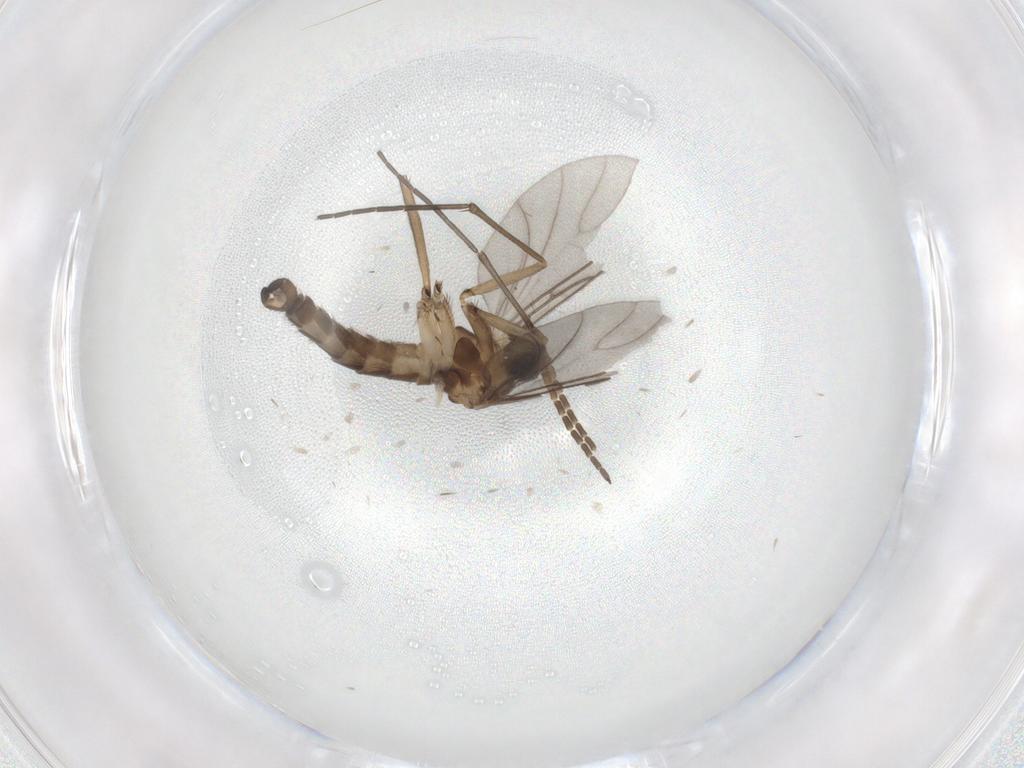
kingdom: Animalia
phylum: Arthropoda
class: Insecta
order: Diptera
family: Sciaridae
